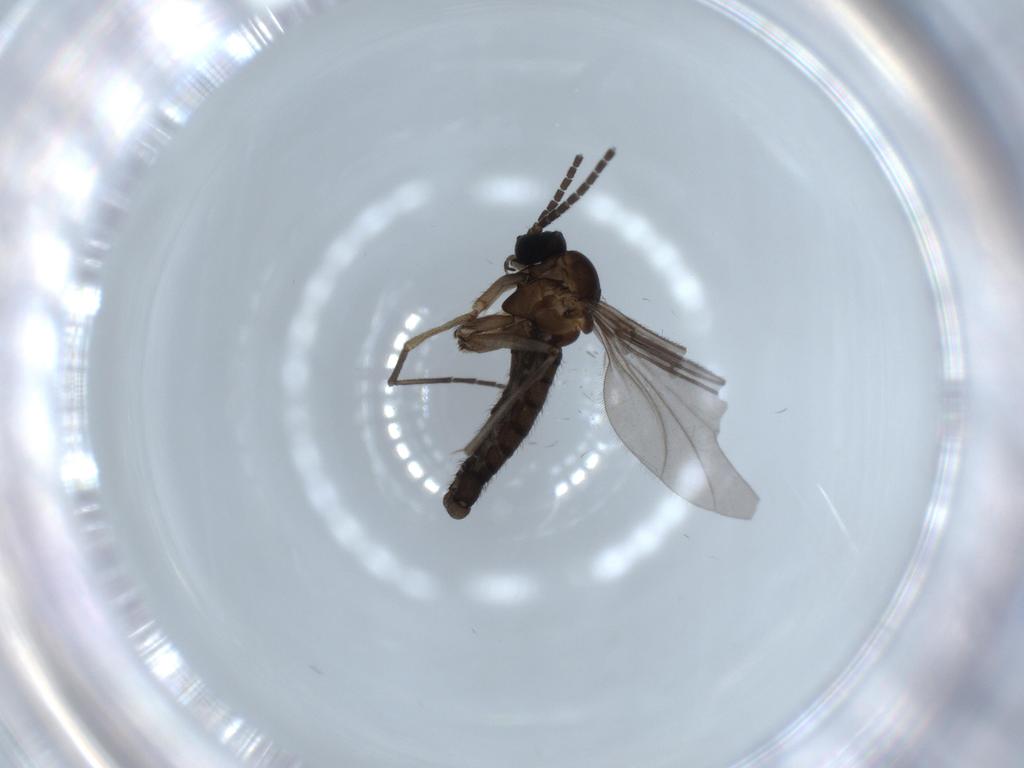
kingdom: Animalia
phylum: Arthropoda
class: Insecta
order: Diptera
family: Sciaridae
